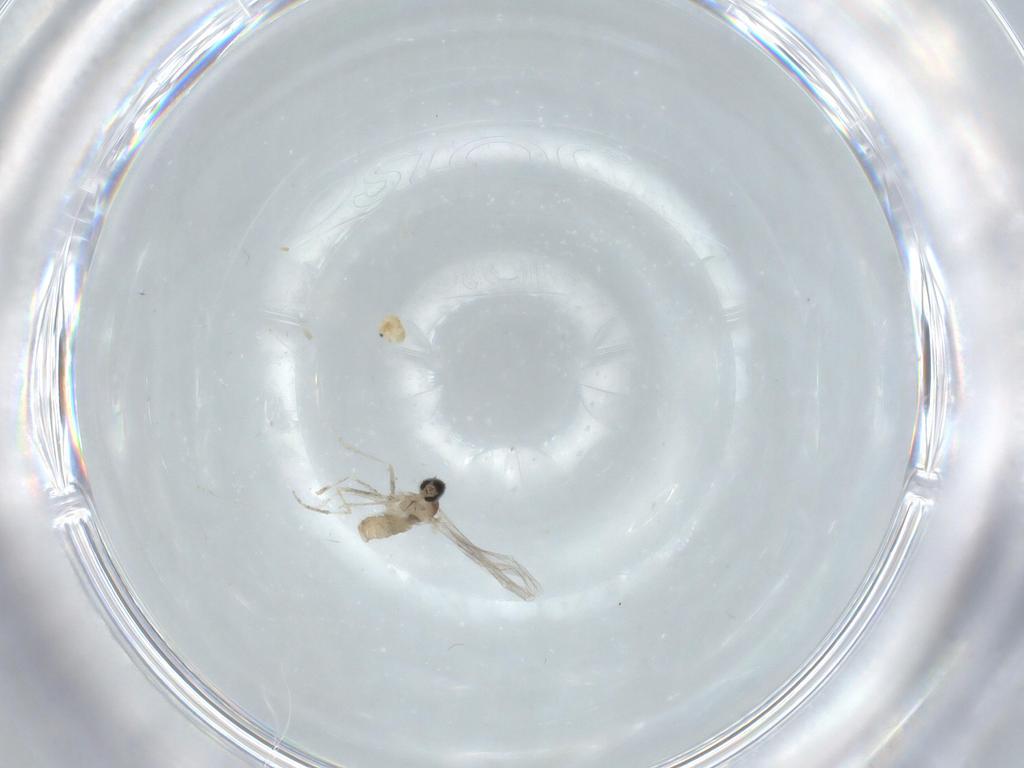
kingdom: Animalia
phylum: Arthropoda
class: Insecta
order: Diptera
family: Cecidomyiidae
